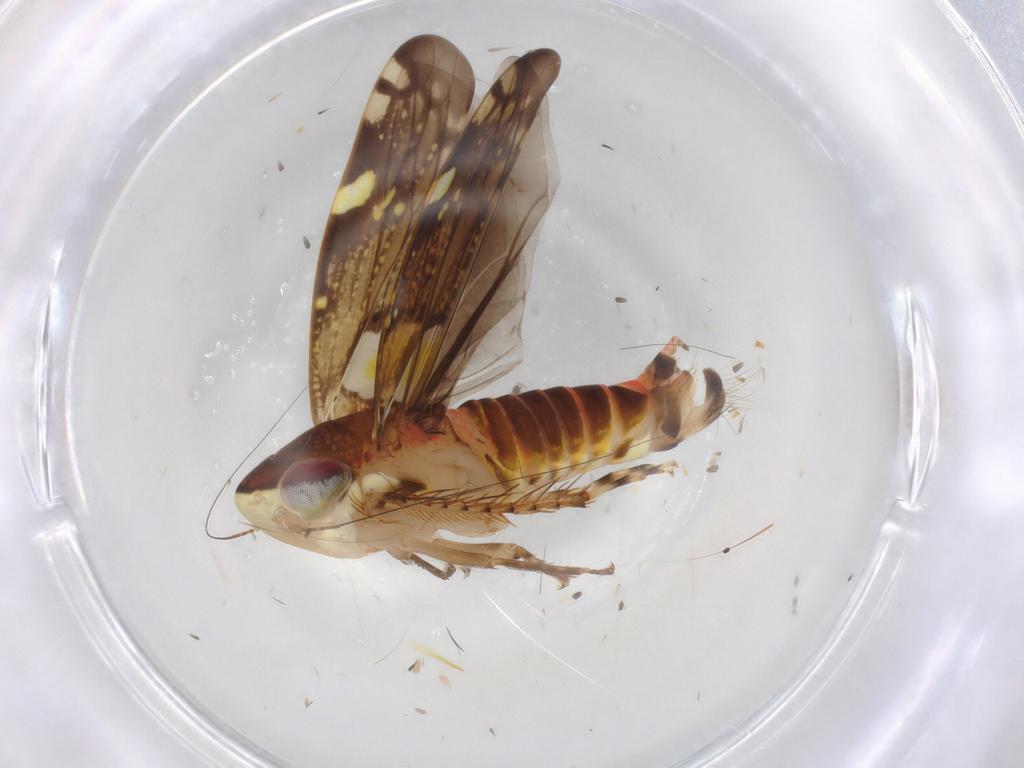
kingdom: Animalia
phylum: Arthropoda
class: Insecta
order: Hemiptera
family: Cicadellidae
